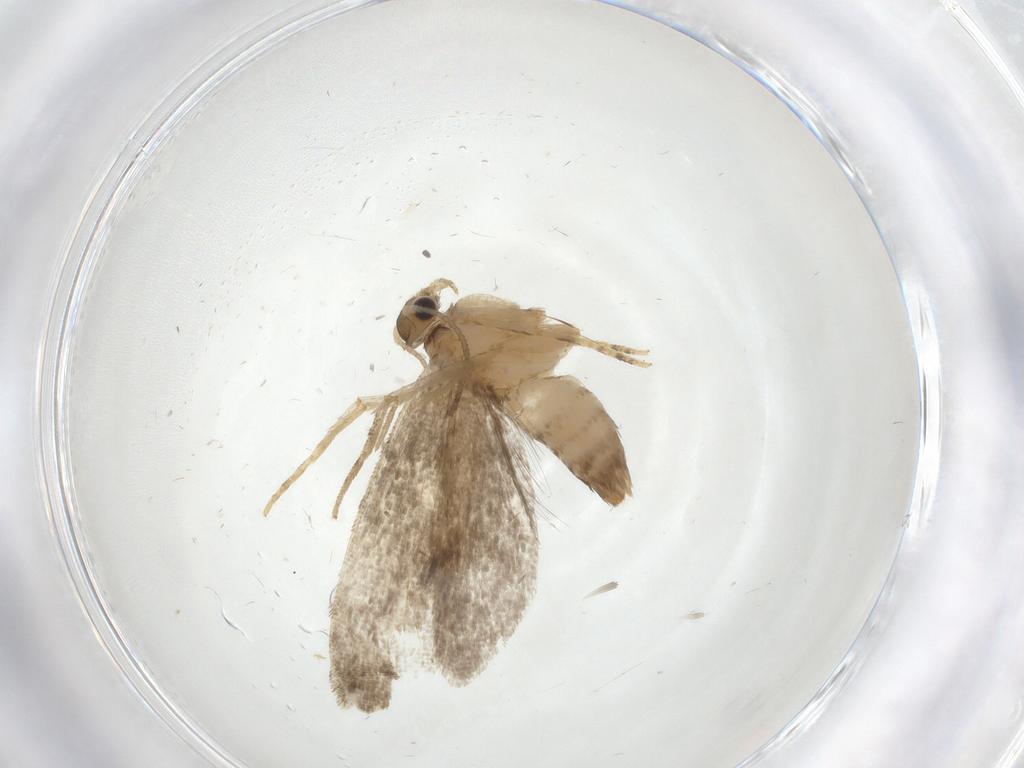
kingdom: Animalia
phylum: Arthropoda
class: Insecta
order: Lepidoptera
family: Dryadaulidae
